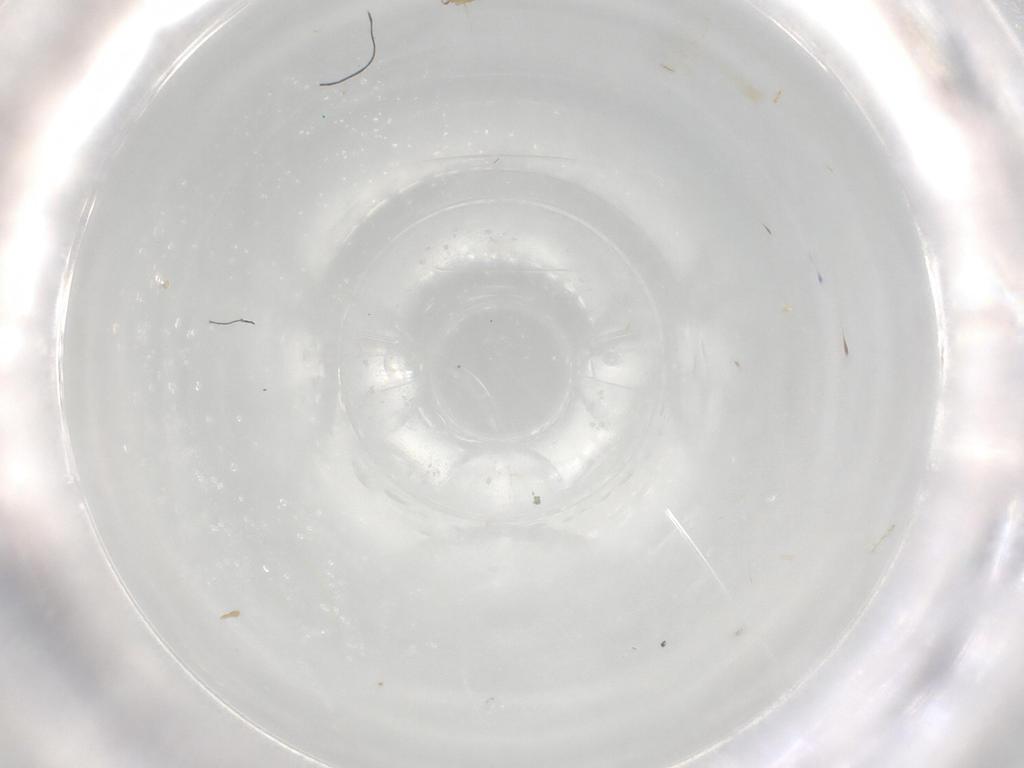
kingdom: Animalia
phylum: Arthropoda
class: Insecta
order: Diptera
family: Chironomidae
